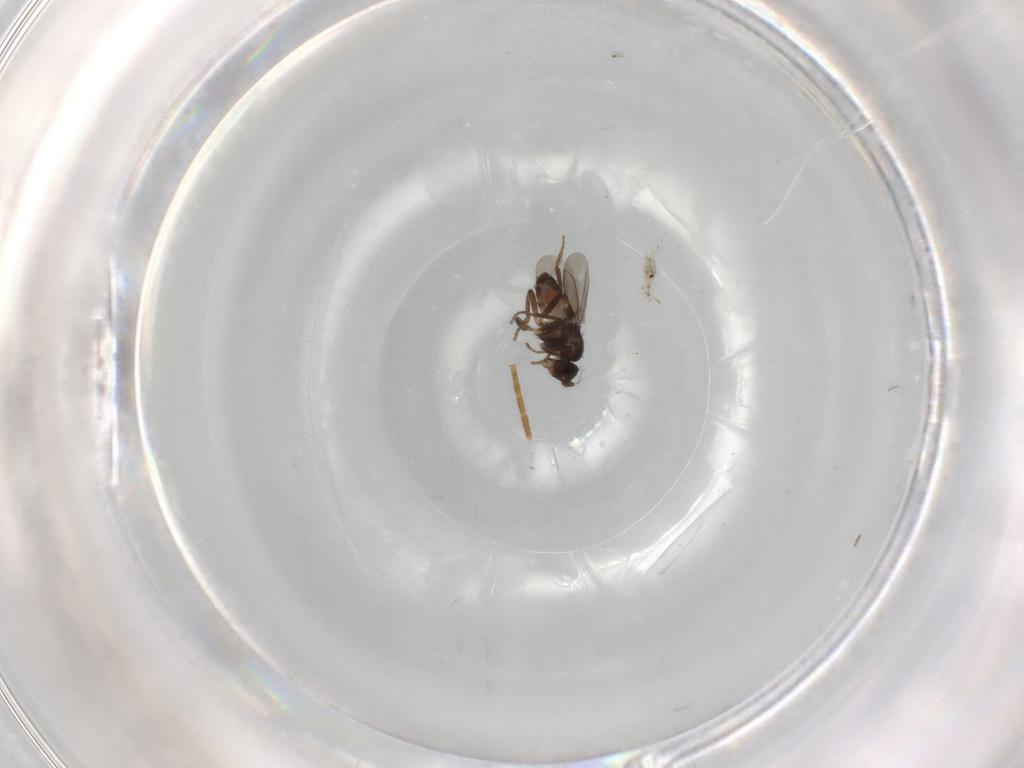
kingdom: Animalia
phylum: Arthropoda
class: Insecta
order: Diptera
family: Sphaeroceridae
